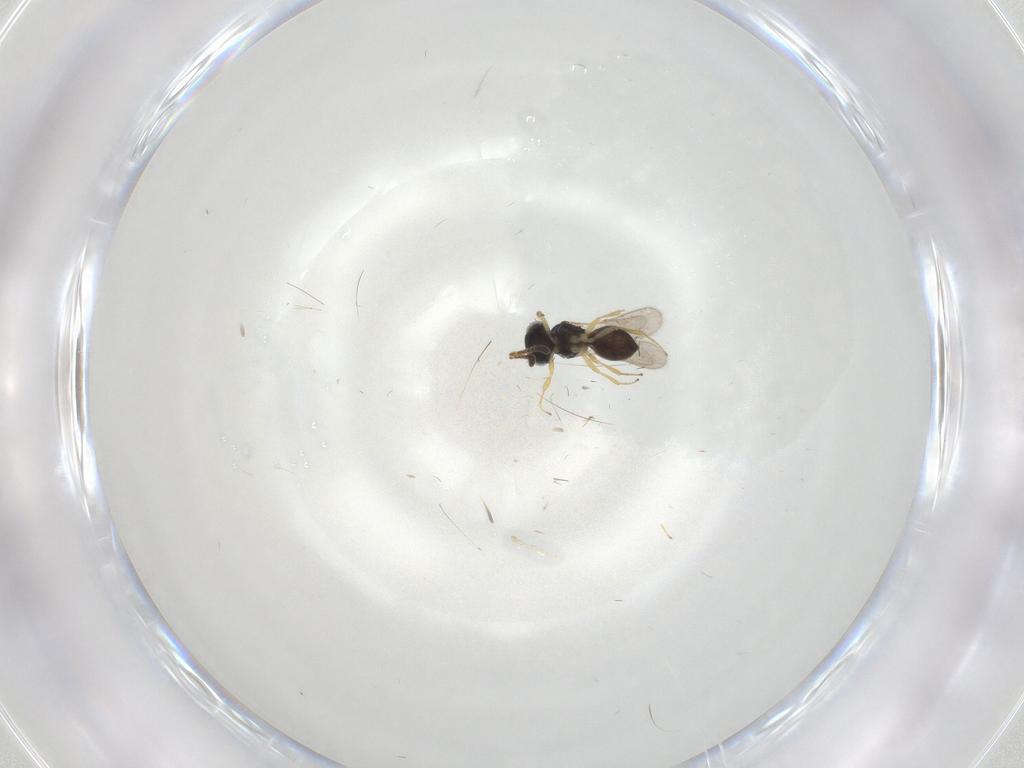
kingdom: Animalia
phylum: Arthropoda
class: Insecta
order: Hymenoptera
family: Scelionidae
